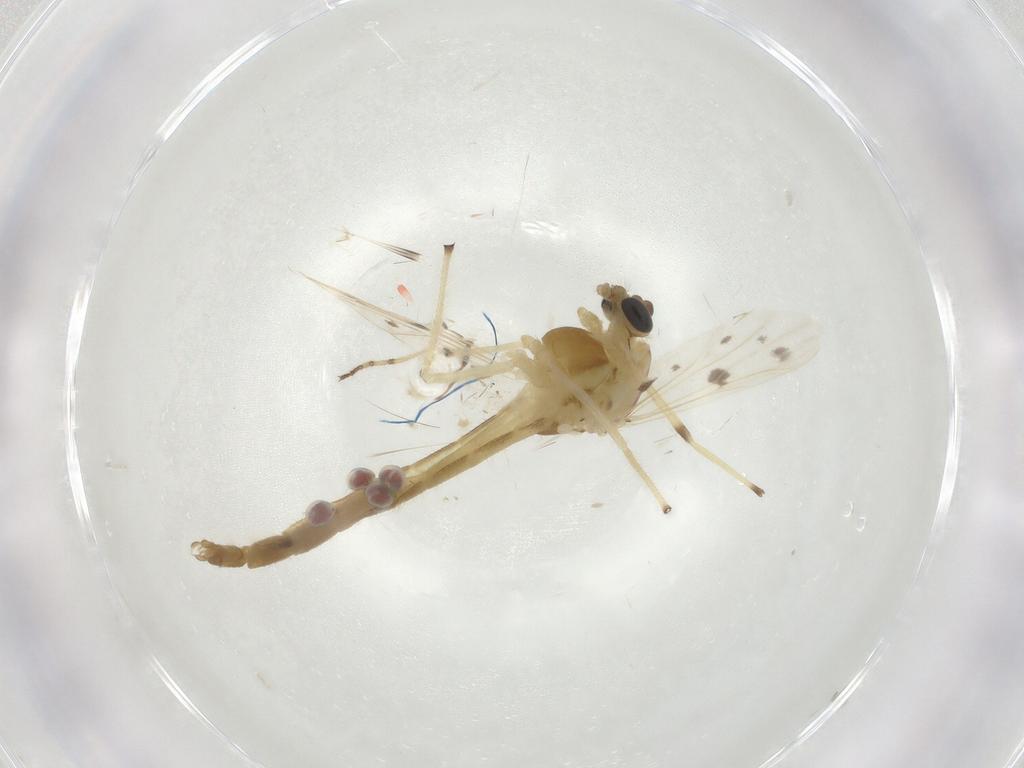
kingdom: Animalia
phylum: Arthropoda
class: Insecta
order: Diptera
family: Chironomidae
